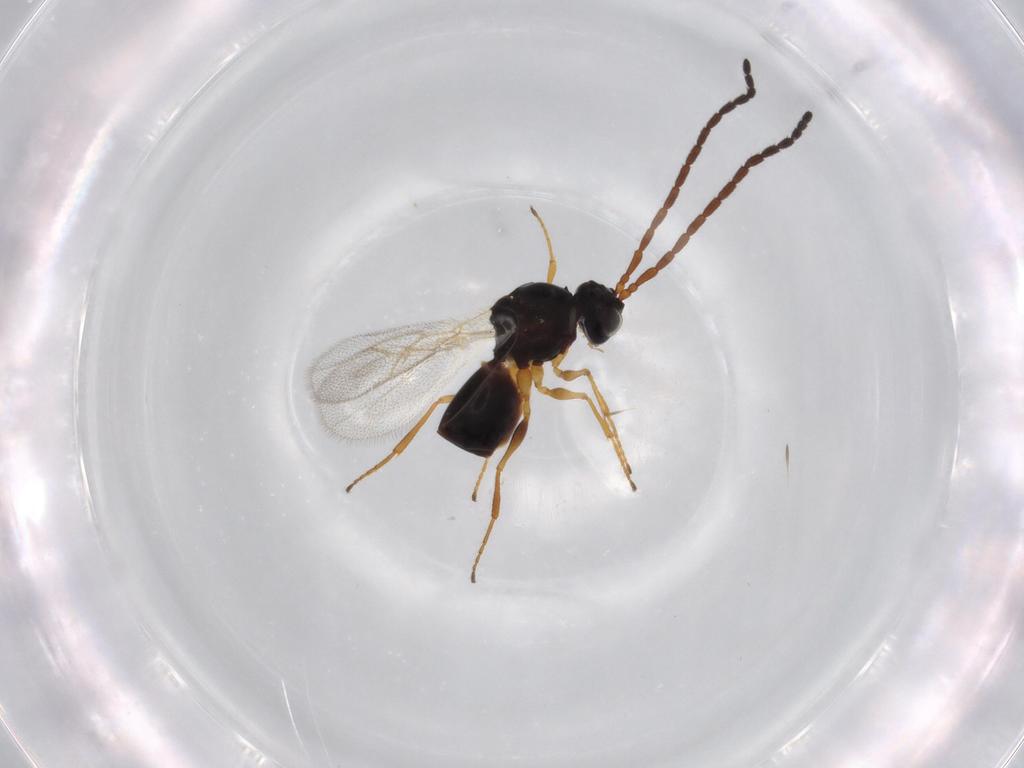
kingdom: Animalia
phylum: Arthropoda
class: Insecta
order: Hymenoptera
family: Figitidae
